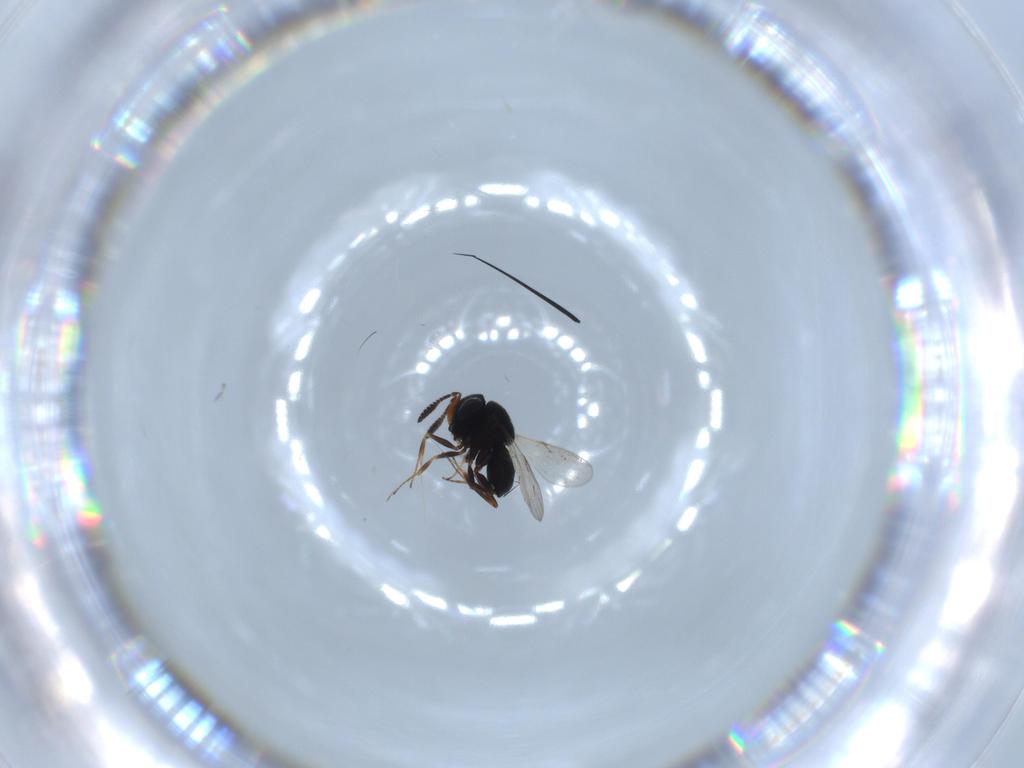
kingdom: Animalia
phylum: Arthropoda
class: Insecta
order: Hymenoptera
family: Scelionidae
